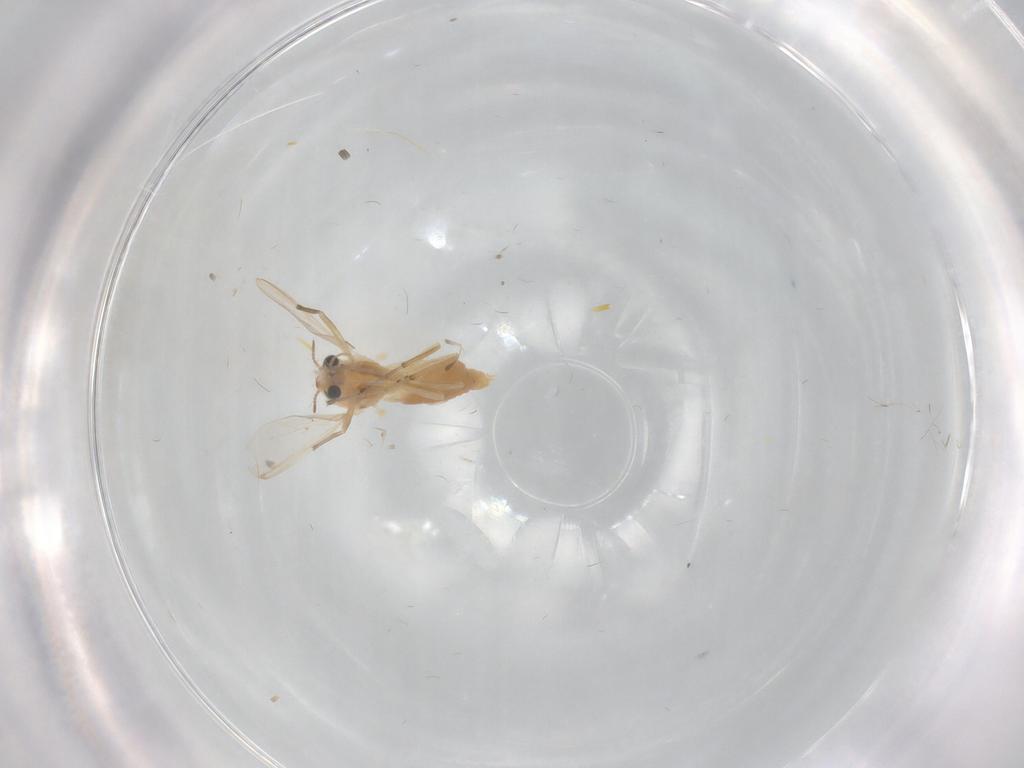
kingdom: Animalia
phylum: Arthropoda
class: Insecta
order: Diptera
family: Chironomidae
